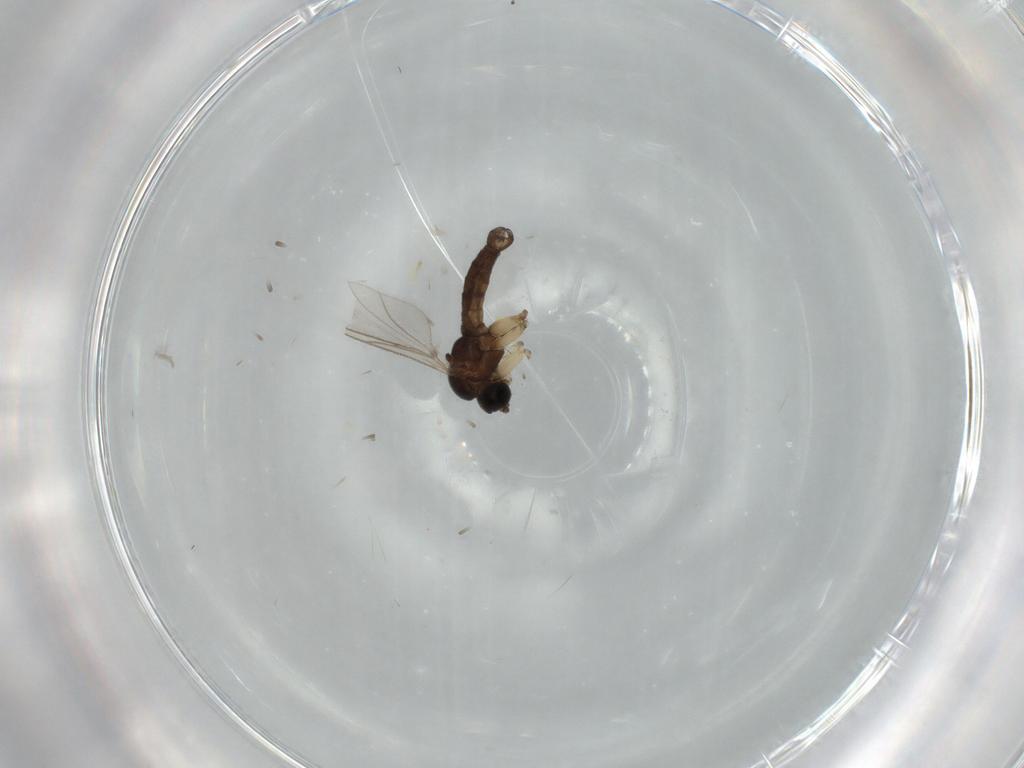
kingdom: Animalia
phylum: Arthropoda
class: Insecta
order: Diptera
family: Sciaridae
